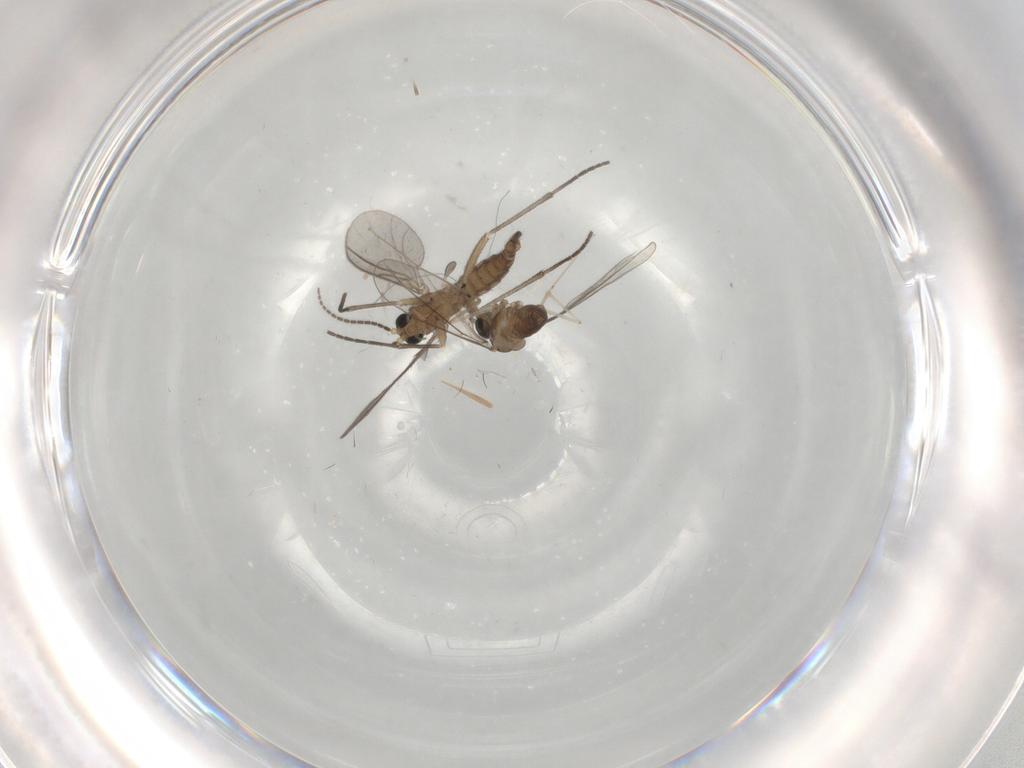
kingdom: Animalia
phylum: Arthropoda
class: Insecta
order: Diptera
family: Sciaridae
